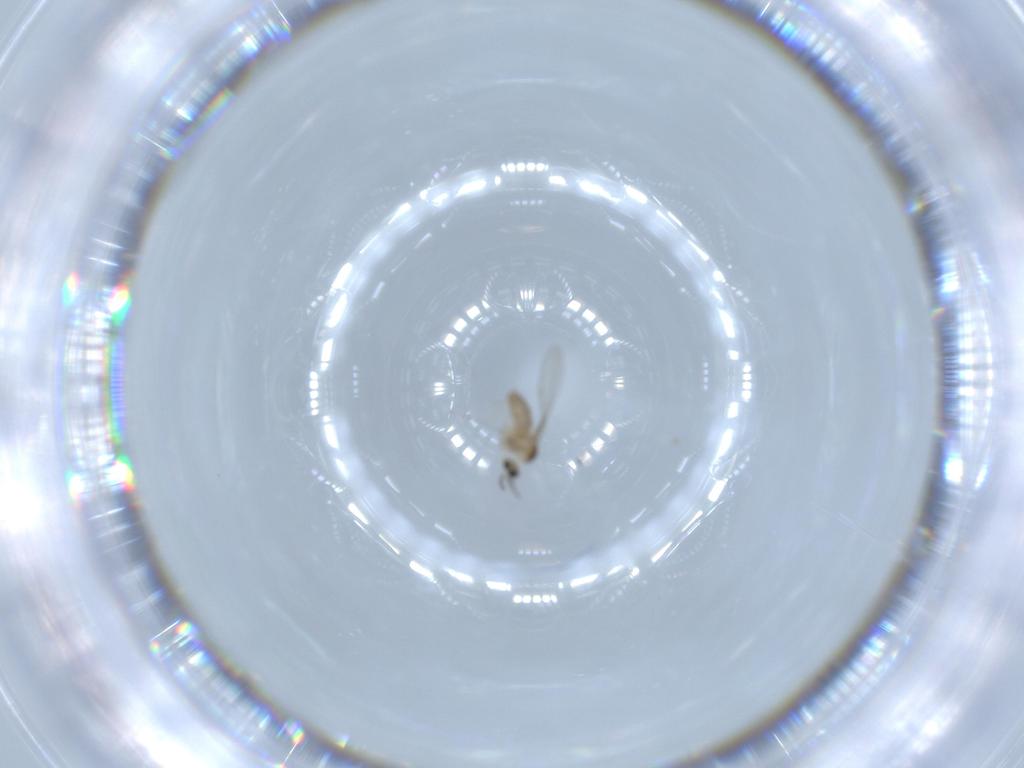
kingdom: Animalia
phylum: Arthropoda
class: Insecta
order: Diptera
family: Cecidomyiidae
